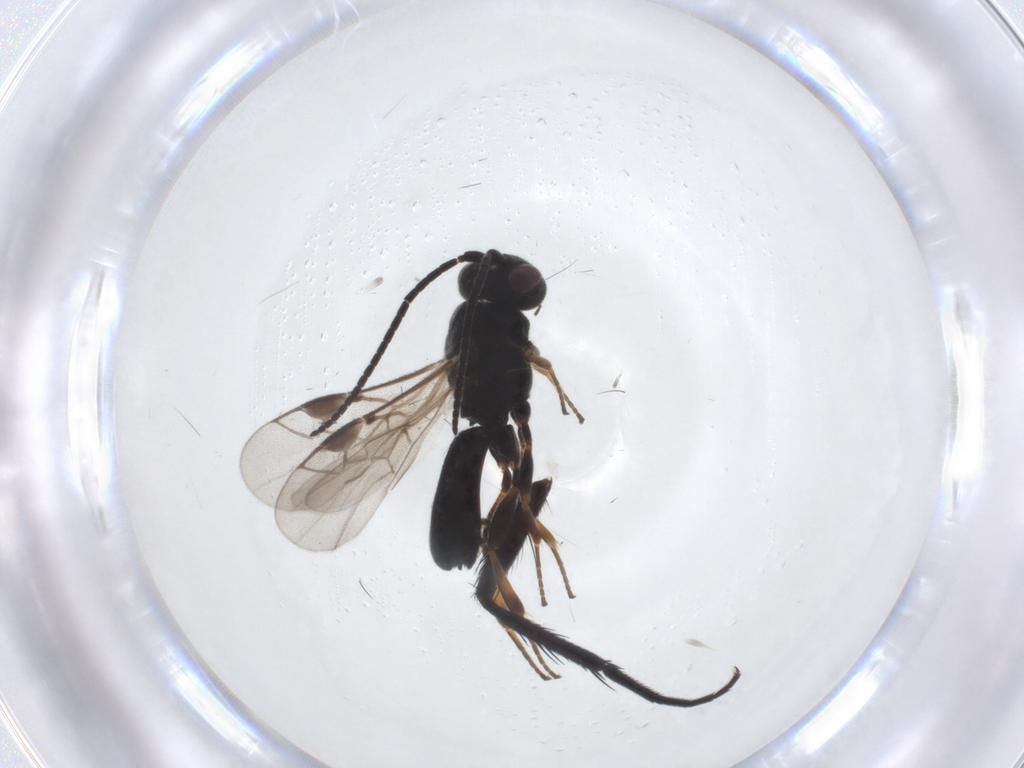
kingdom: Animalia
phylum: Arthropoda
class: Insecta
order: Hymenoptera
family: Braconidae
